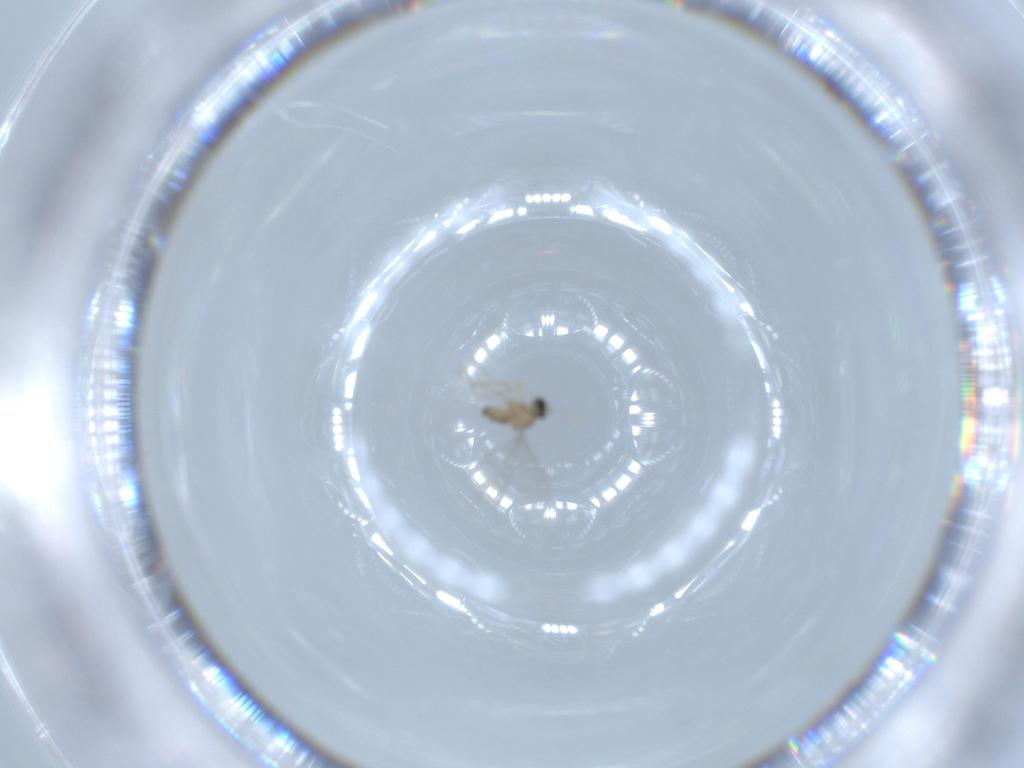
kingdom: Animalia
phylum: Arthropoda
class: Insecta
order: Diptera
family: Cecidomyiidae
